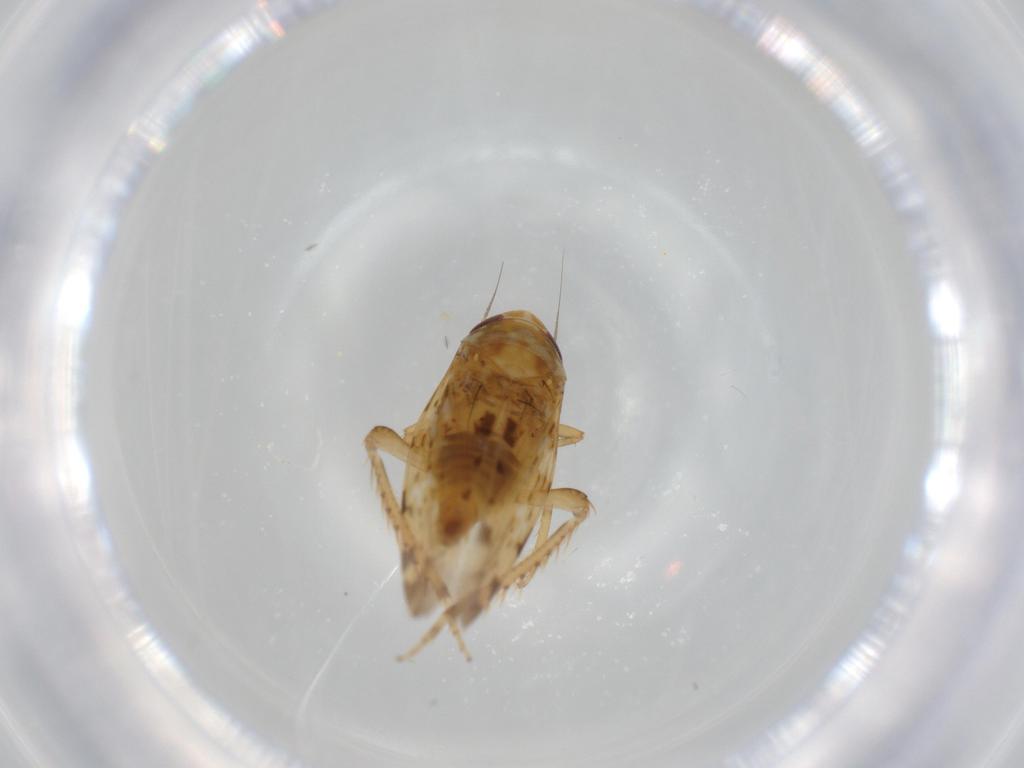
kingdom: Animalia
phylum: Arthropoda
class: Insecta
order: Hemiptera
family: Cicadellidae
